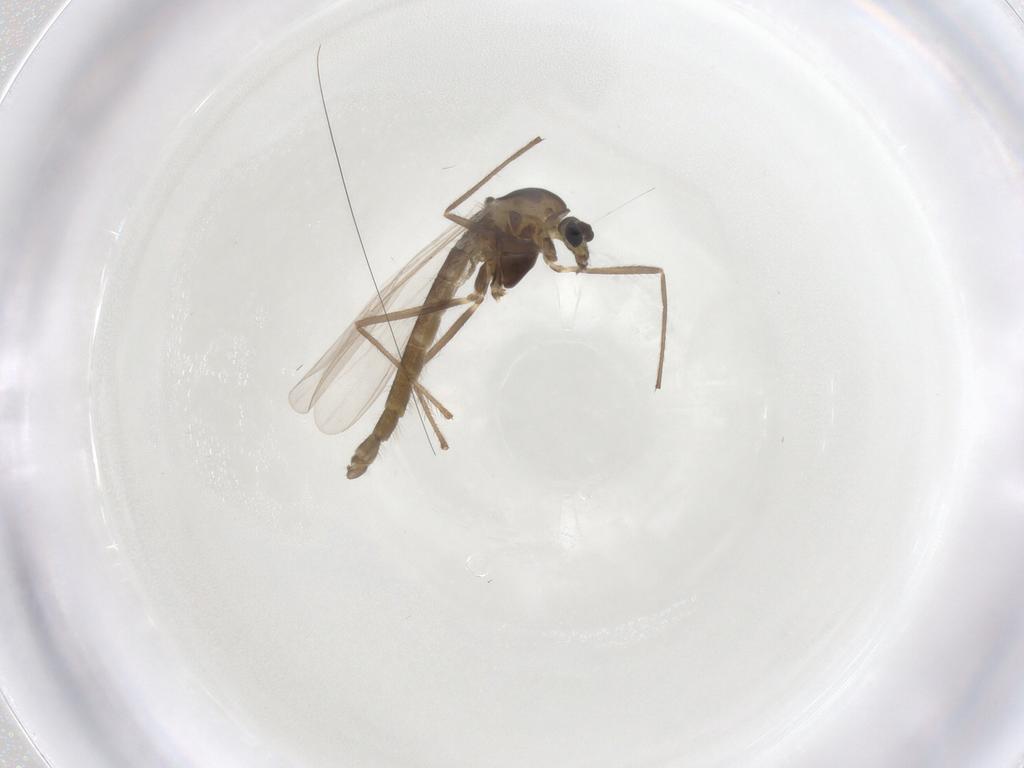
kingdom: Animalia
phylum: Arthropoda
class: Insecta
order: Diptera
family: Chironomidae
